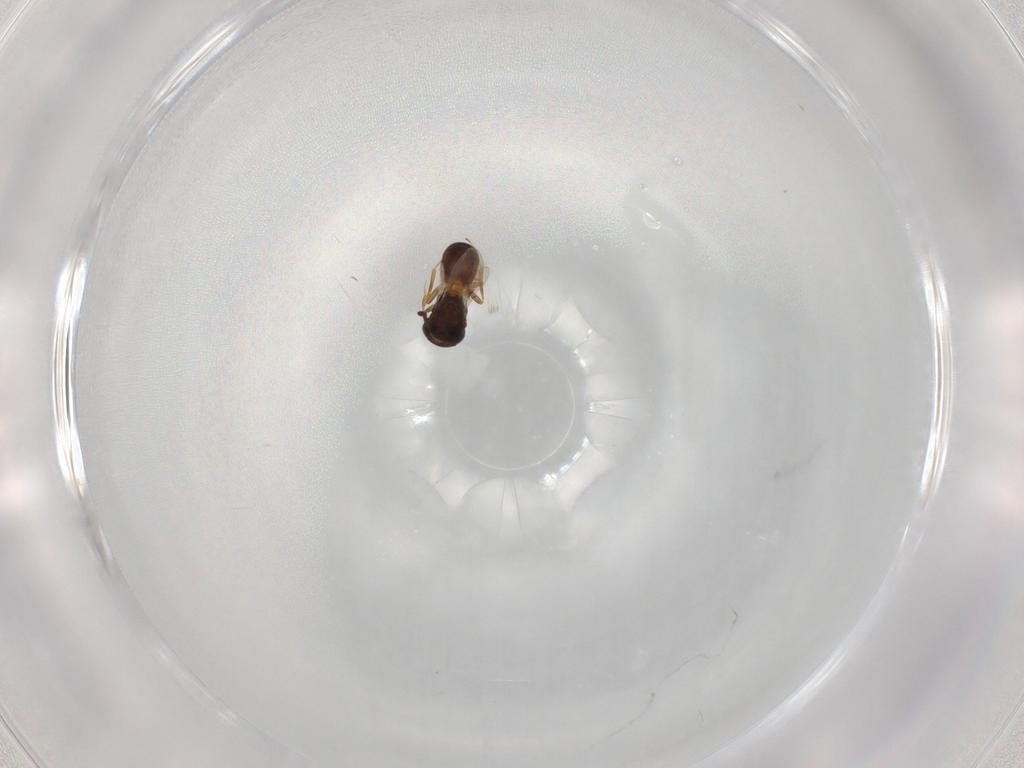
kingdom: Animalia
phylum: Arthropoda
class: Insecta
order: Hymenoptera
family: Scelionidae
